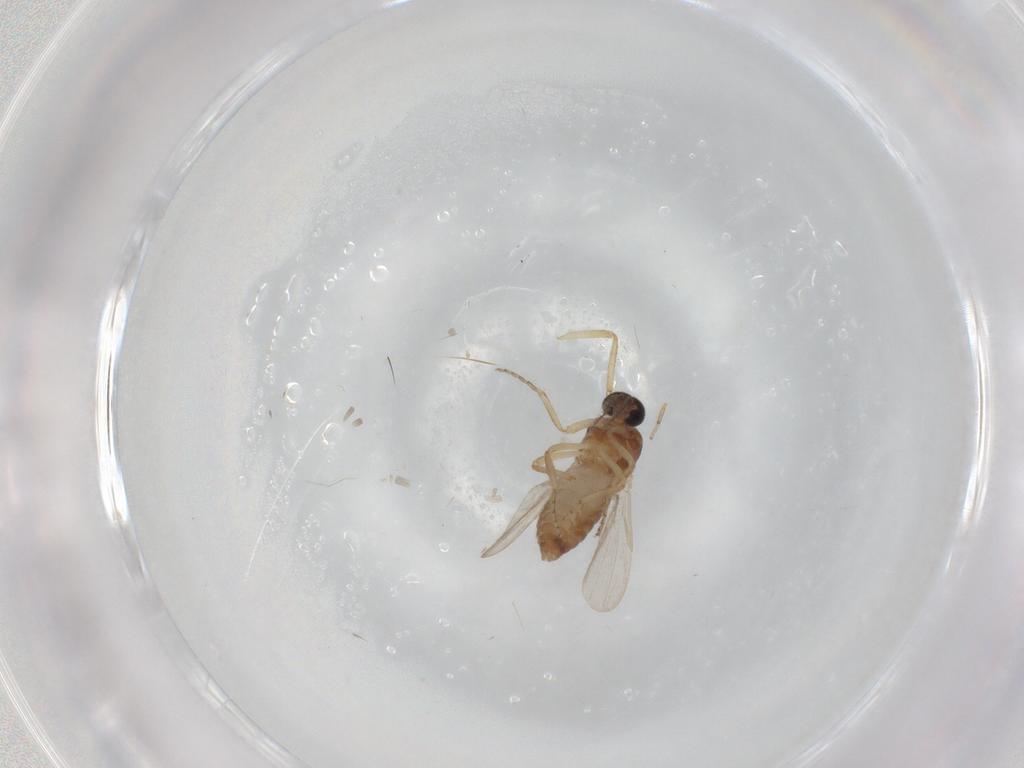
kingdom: Animalia
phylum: Arthropoda
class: Insecta
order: Diptera
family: Ceratopogonidae
